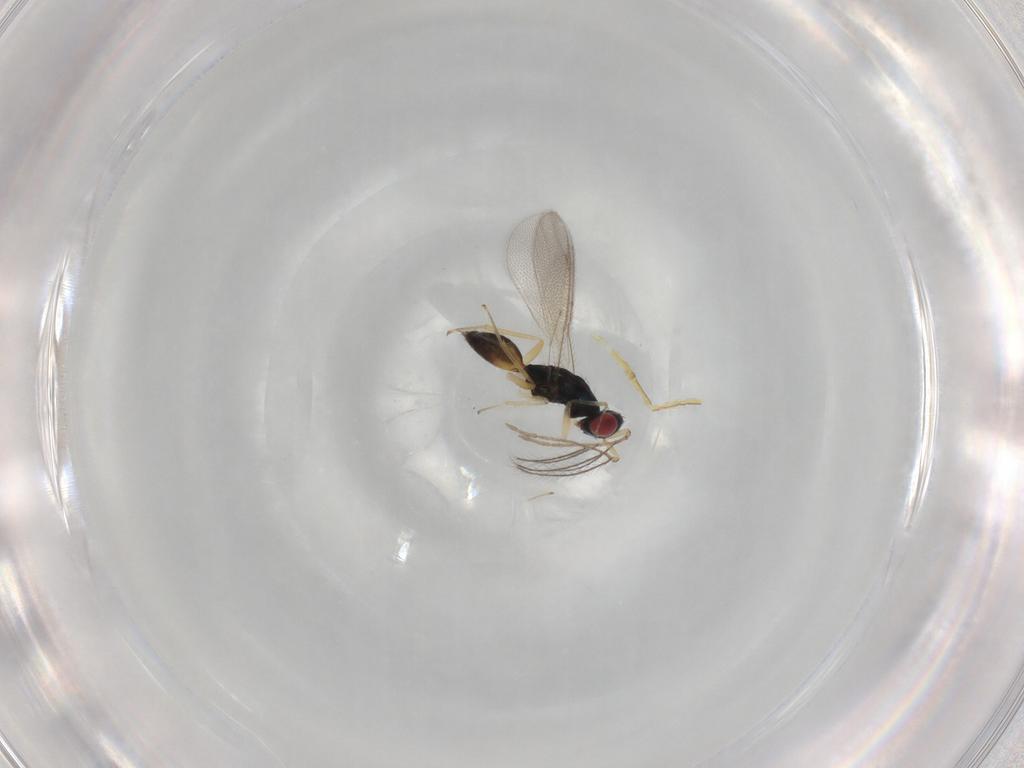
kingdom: Animalia
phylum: Arthropoda
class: Insecta
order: Hymenoptera
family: Eulophidae
